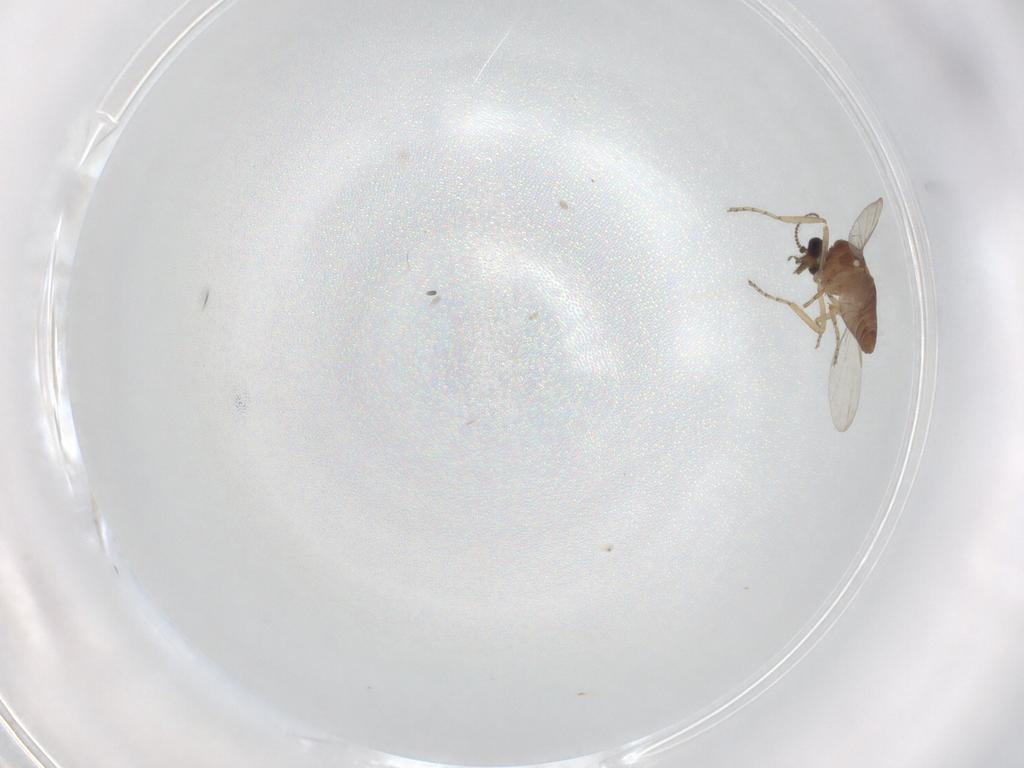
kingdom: Animalia
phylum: Arthropoda
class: Insecta
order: Diptera
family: Ceratopogonidae
